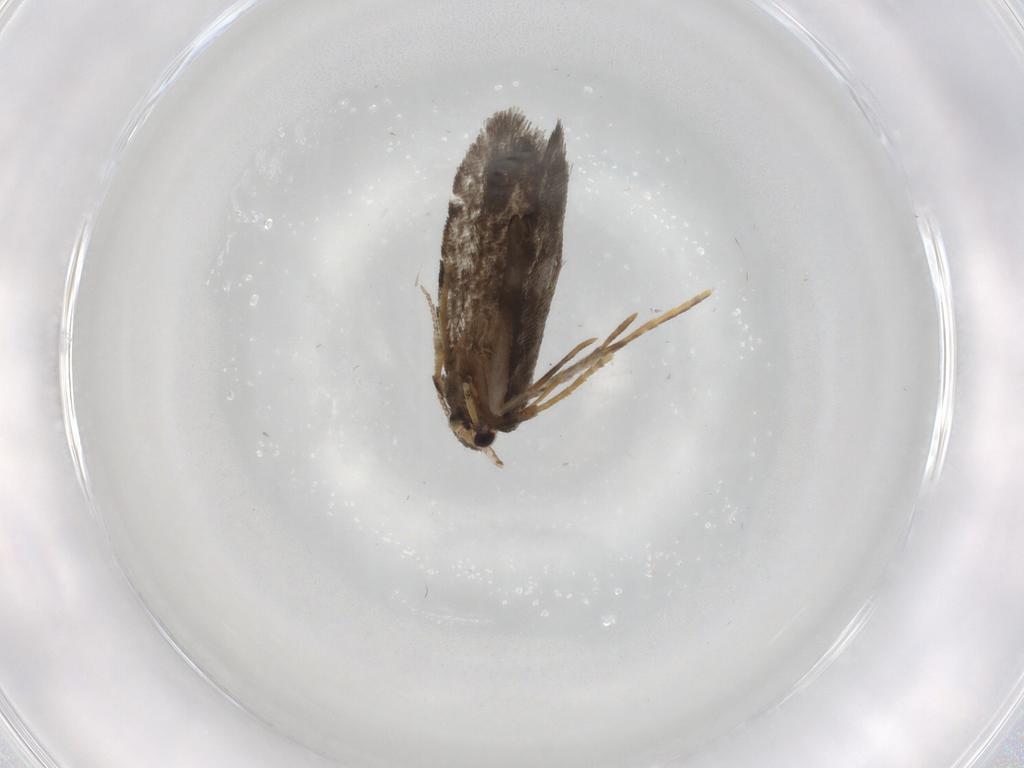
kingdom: Animalia
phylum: Arthropoda
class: Insecta
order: Lepidoptera
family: Psychidae
